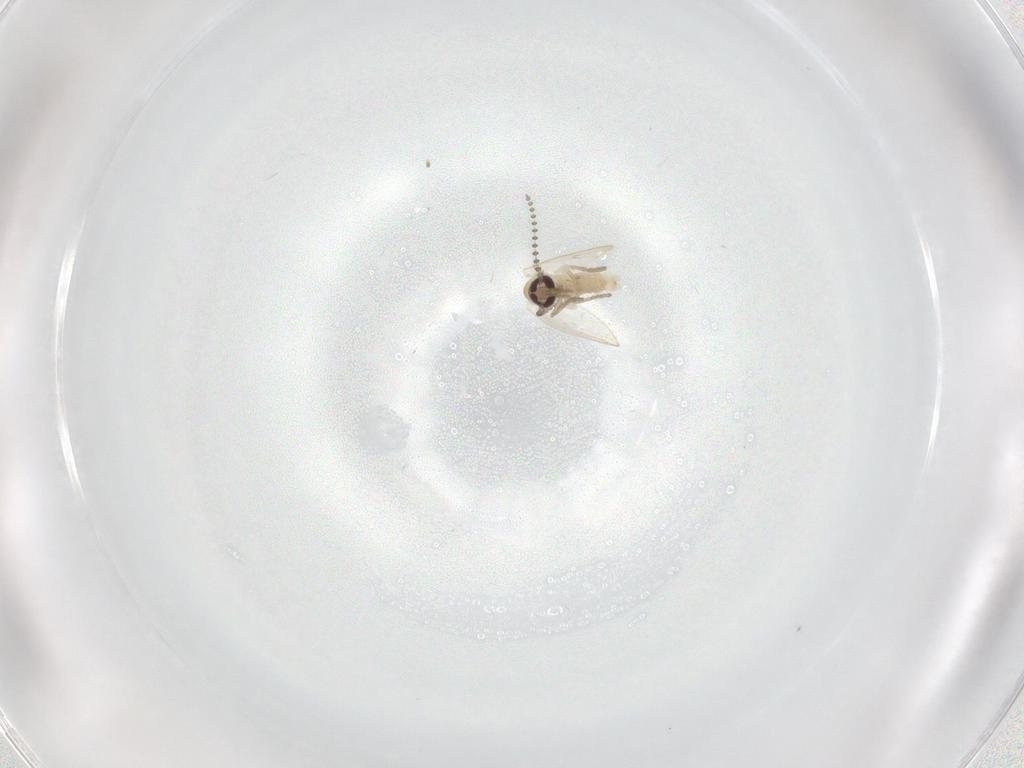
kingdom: Animalia
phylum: Arthropoda
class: Insecta
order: Diptera
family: Psychodidae
